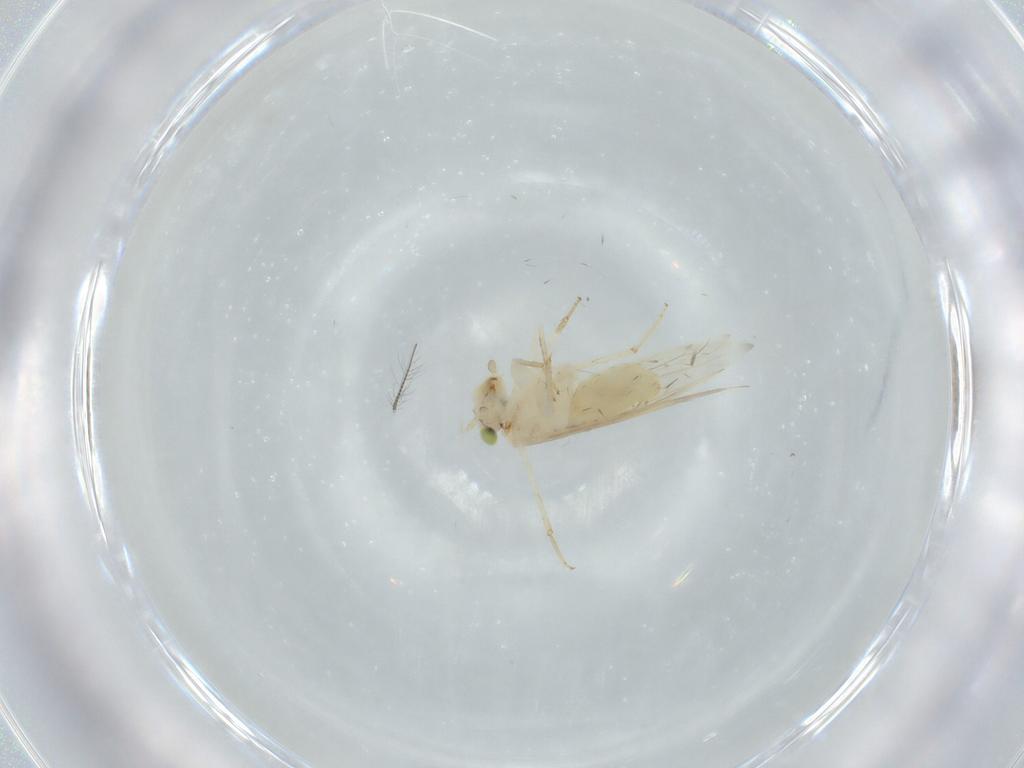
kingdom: Animalia
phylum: Arthropoda
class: Insecta
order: Psocodea
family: Lepidopsocidae
